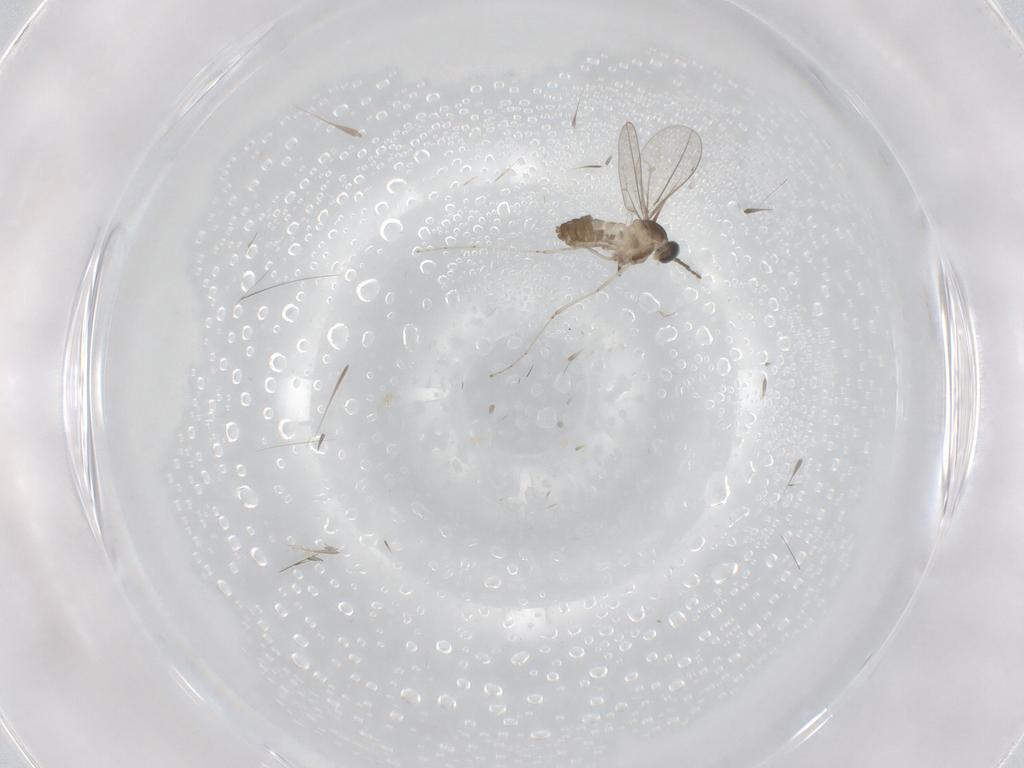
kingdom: Animalia
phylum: Arthropoda
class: Insecta
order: Diptera
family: Cecidomyiidae
